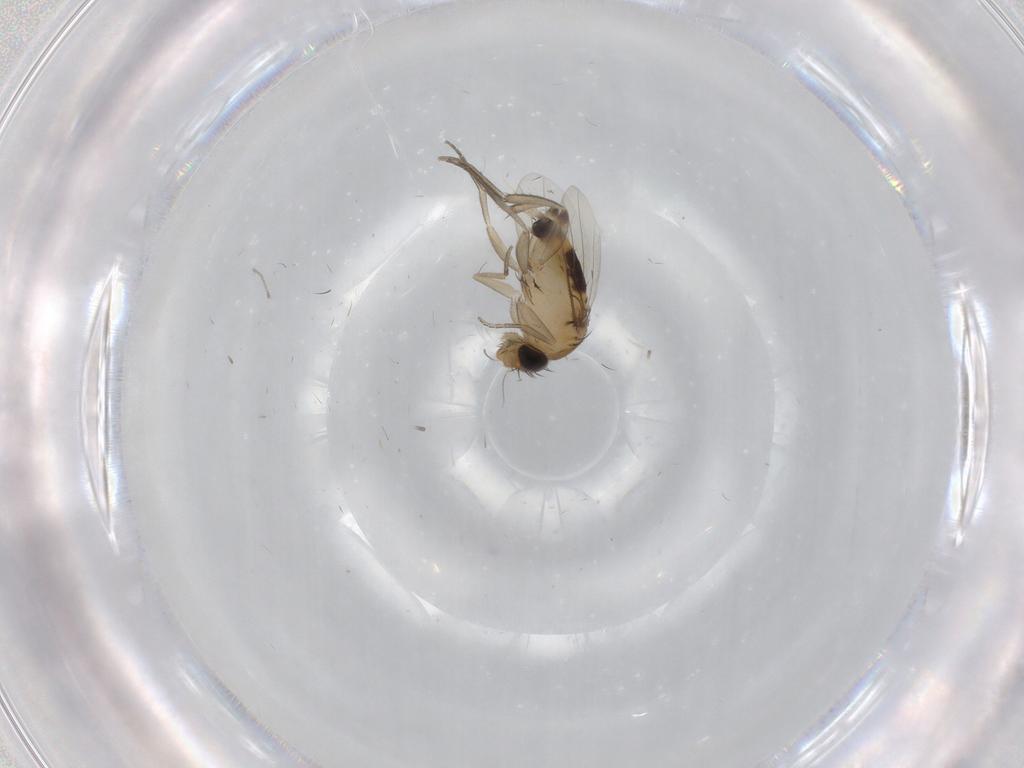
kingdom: Animalia
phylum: Arthropoda
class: Insecta
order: Diptera
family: Phoridae
